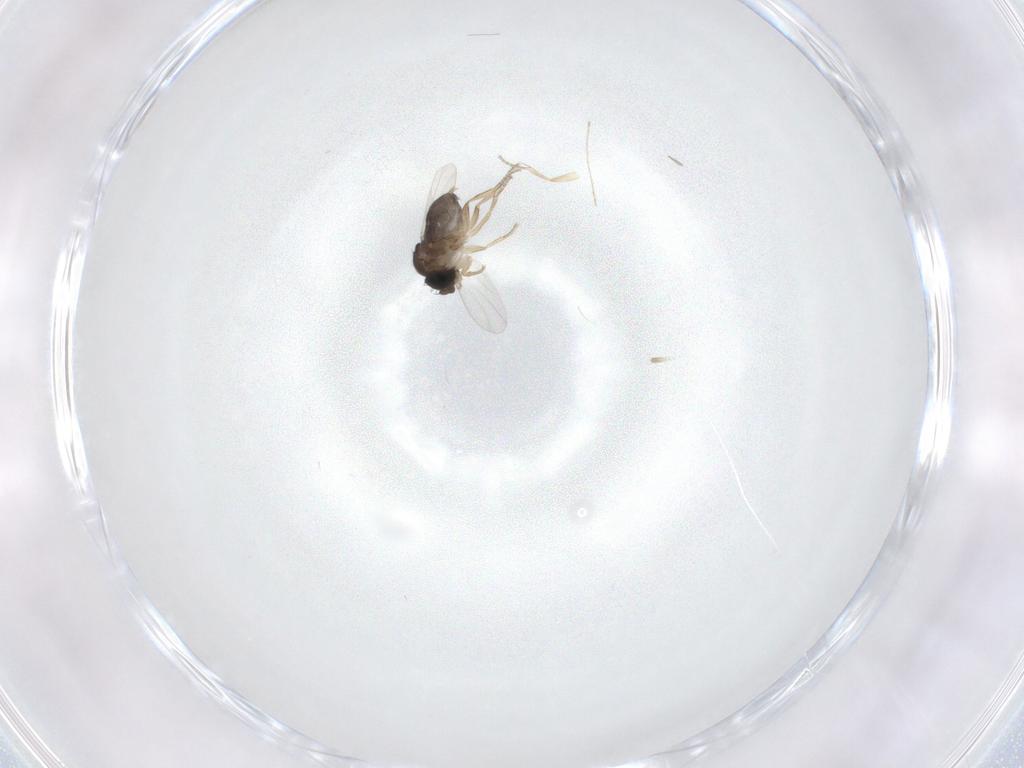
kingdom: Animalia
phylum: Arthropoda
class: Insecta
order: Diptera
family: Phoridae
